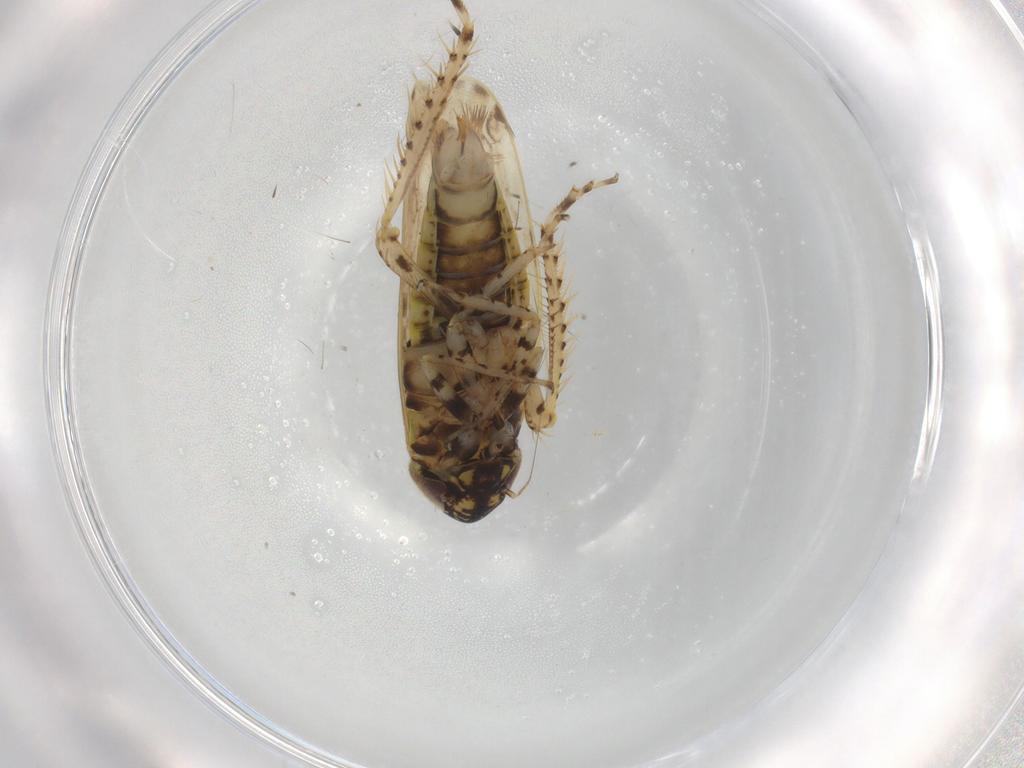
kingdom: Animalia
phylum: Arthropoda
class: Insecta
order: Hemiptera
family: Cicadellidae
